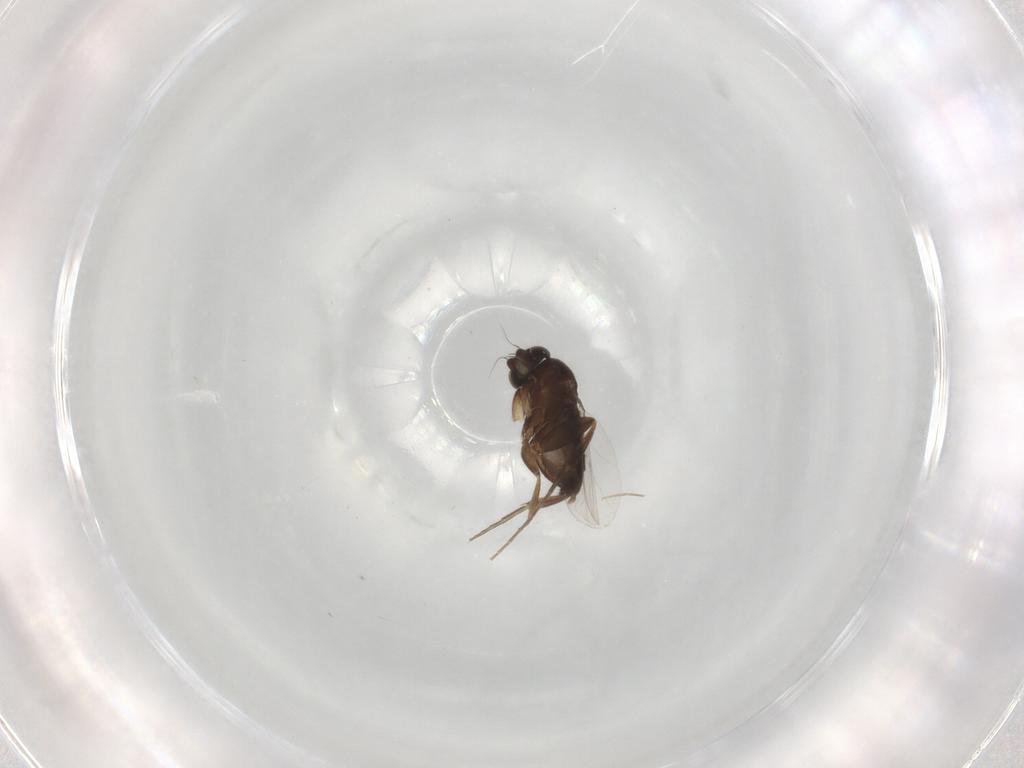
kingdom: Animalia
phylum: Arthropoda
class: Insecta
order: Diptera
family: Phoridae
